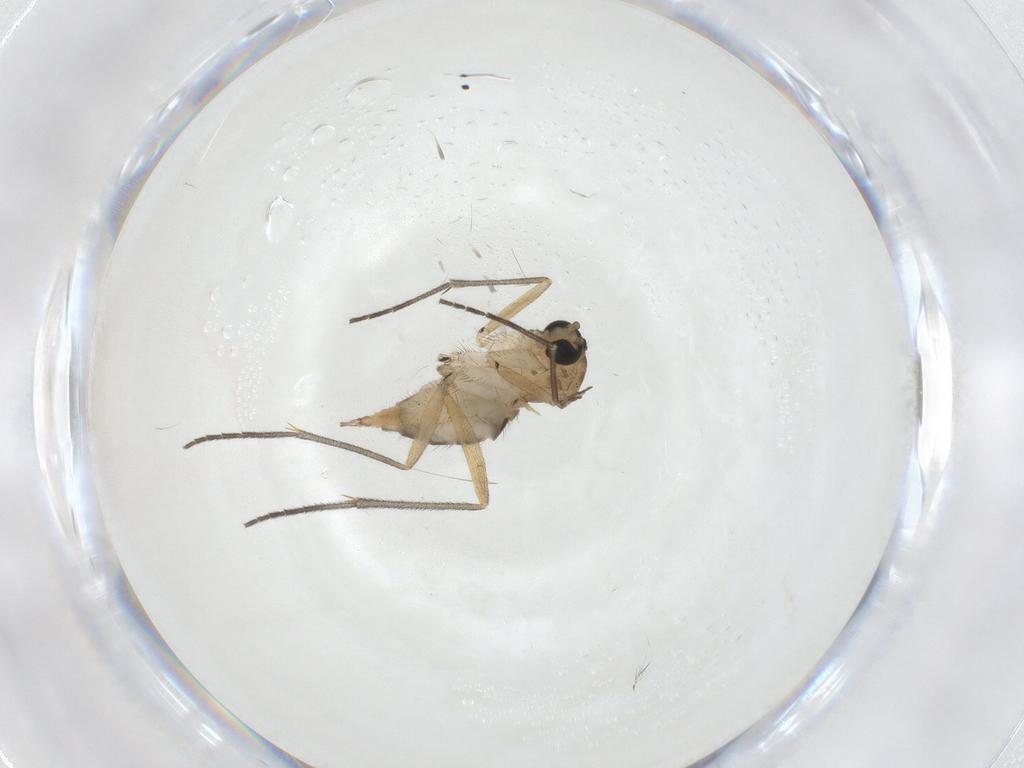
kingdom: Animalia
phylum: Arthropoda
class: Insecta
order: Diptera
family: Sciaridae
